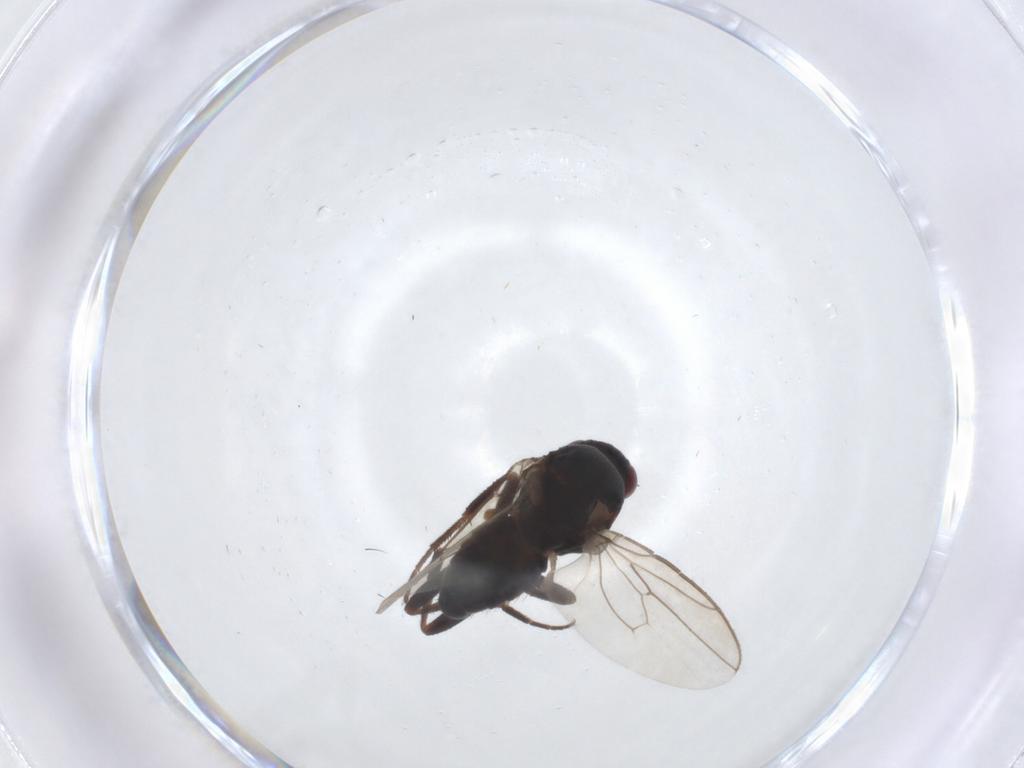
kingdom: Animalia
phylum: Arthropoda
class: Insecta
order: Diptera
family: Sphaeroceridae
